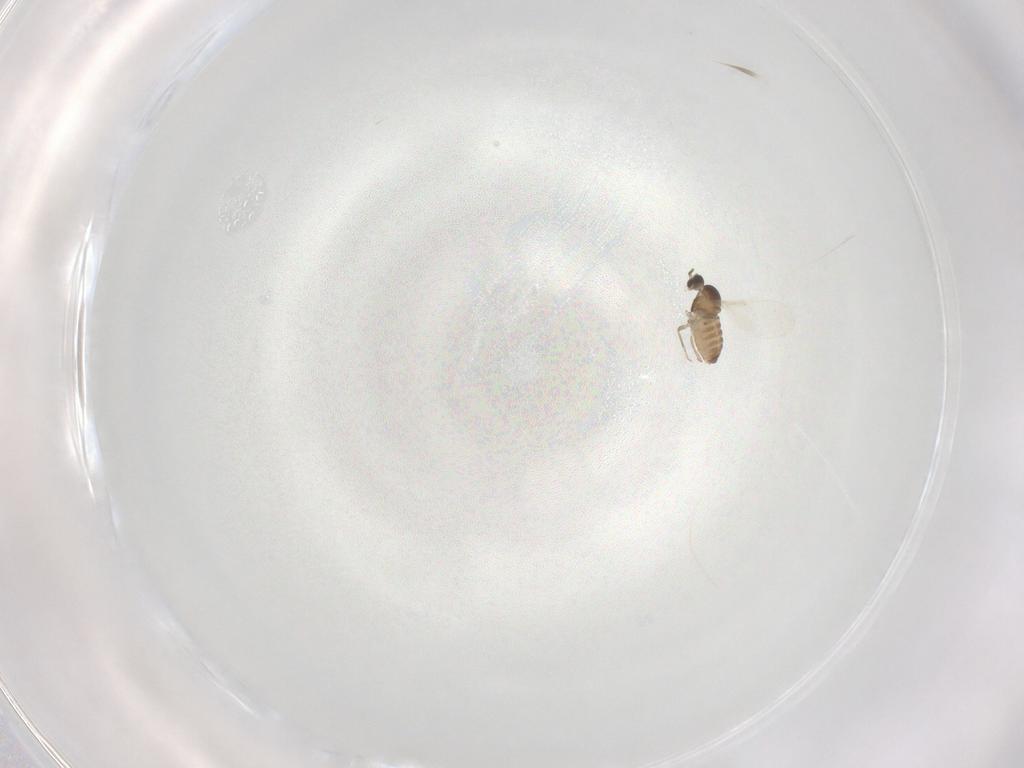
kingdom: Animalia
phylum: Arthropoda
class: Insecta
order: Diptera
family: Cecidomyiidae
